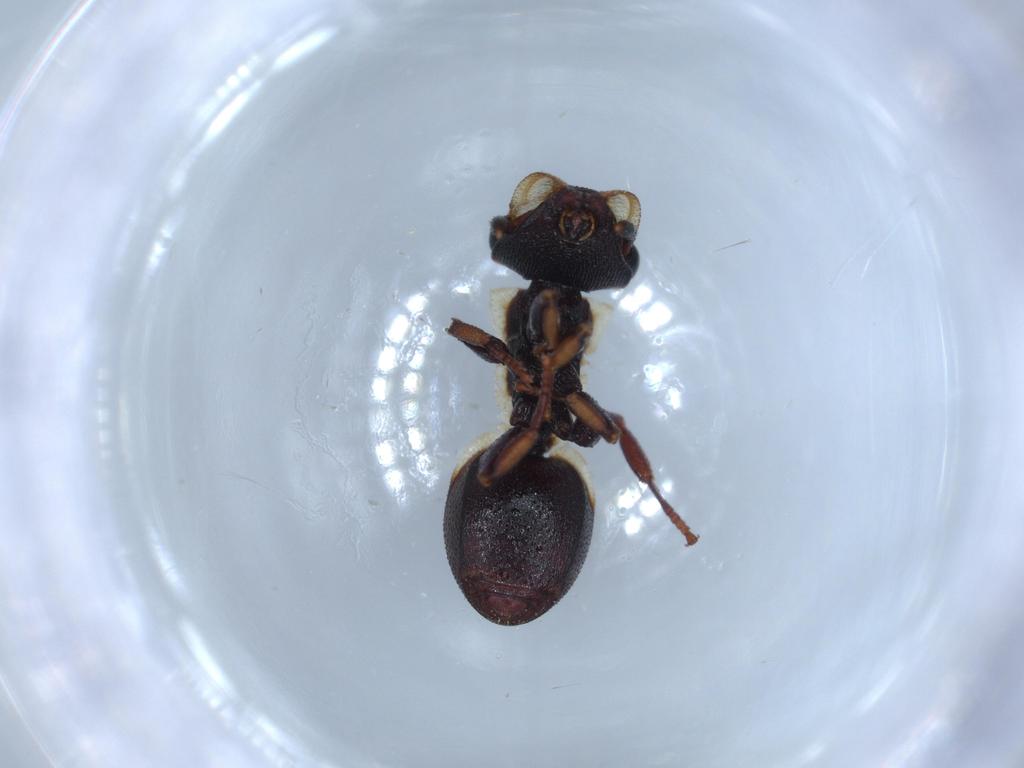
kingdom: Animalia
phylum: Arthropoda
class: Insecta
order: Hymenoptera
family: Formicidae
